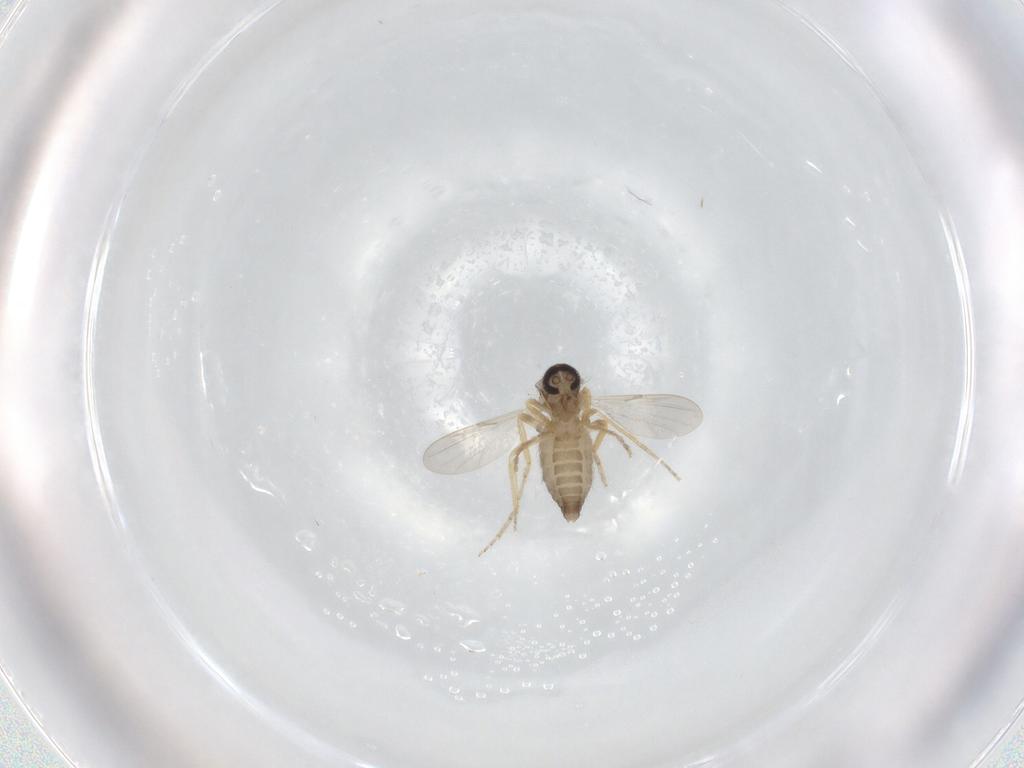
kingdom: Animalia
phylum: Arthropoda
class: Insecta
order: Diptera
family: Ceratopogonidae
